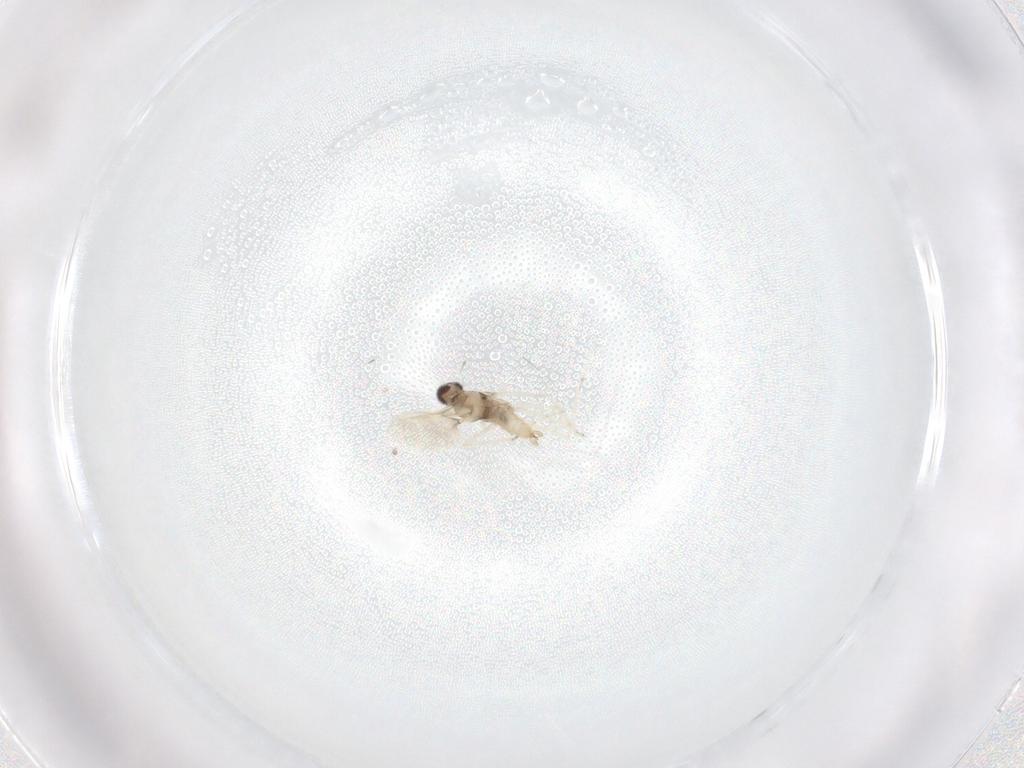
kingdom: Animalia
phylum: Arthropoda
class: Insecta
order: Diptera
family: Cecidomyiidae
